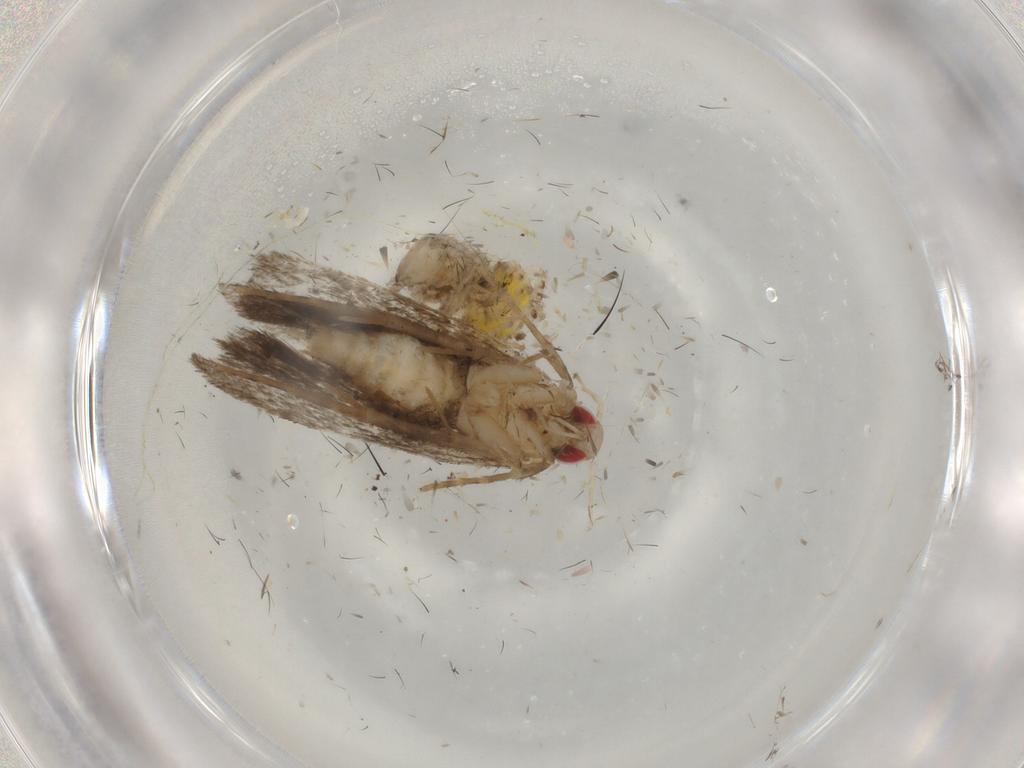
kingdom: Animalia
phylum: Arthropoda
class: Insecta
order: Blattodea
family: Ectobiidae
